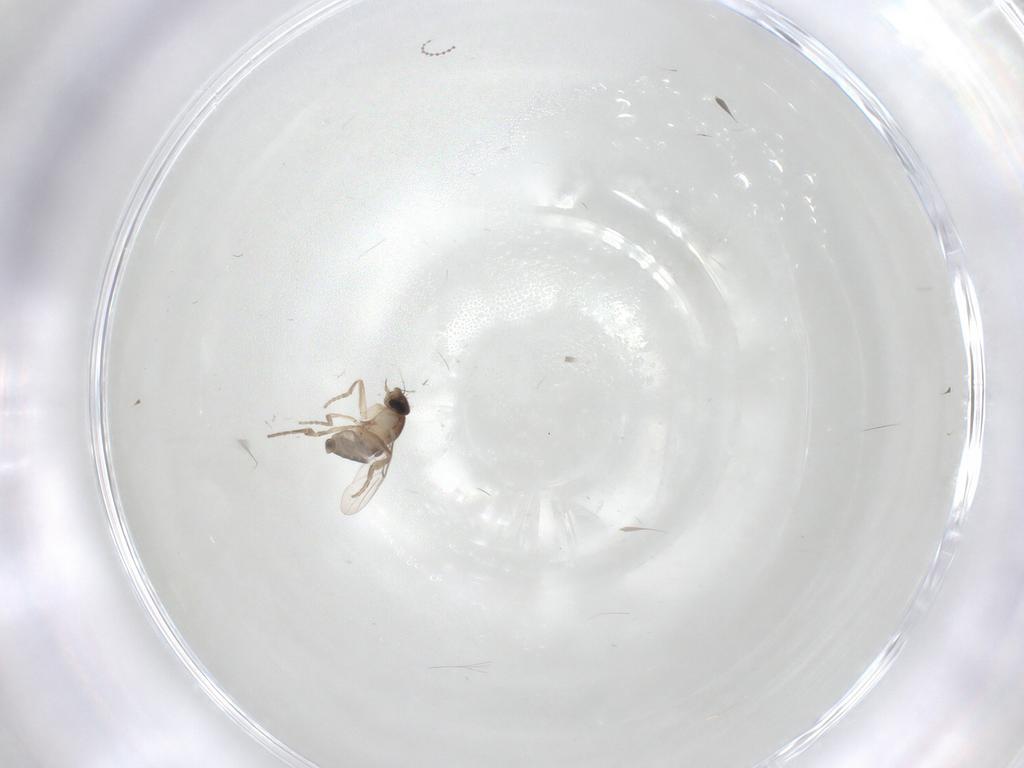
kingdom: Animalia
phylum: Arthropoda
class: Insecta
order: Diptera
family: Phoridae
